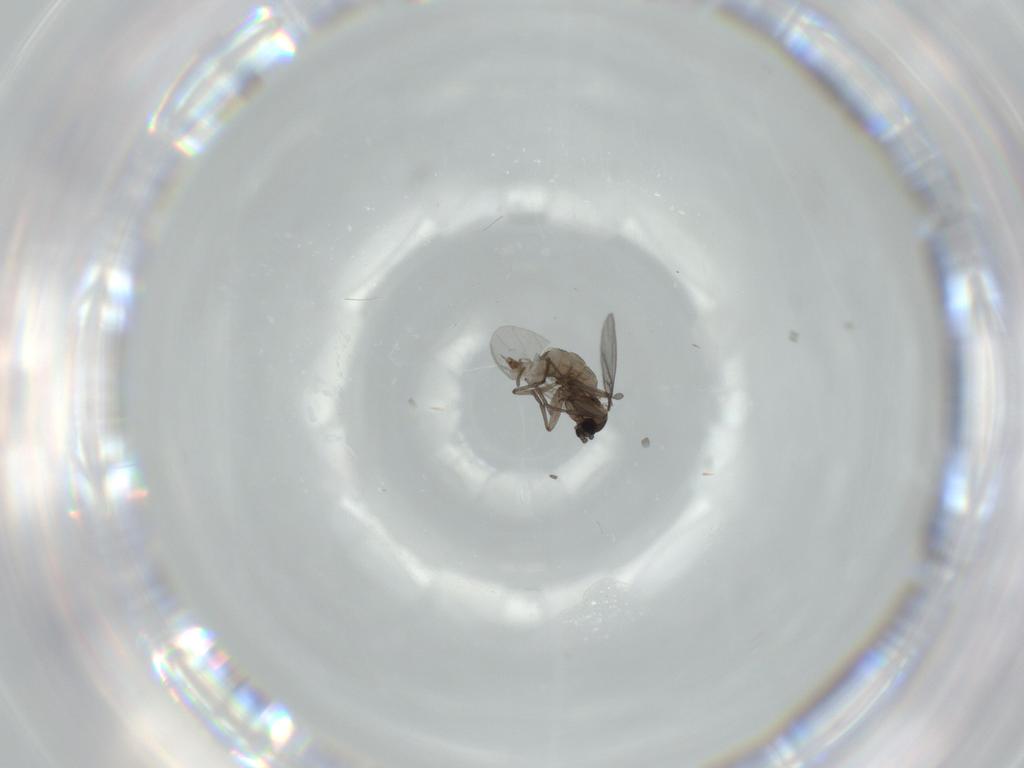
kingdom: Animalia
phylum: Arthropoda
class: Insecta
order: Diptera
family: Sciaridae
